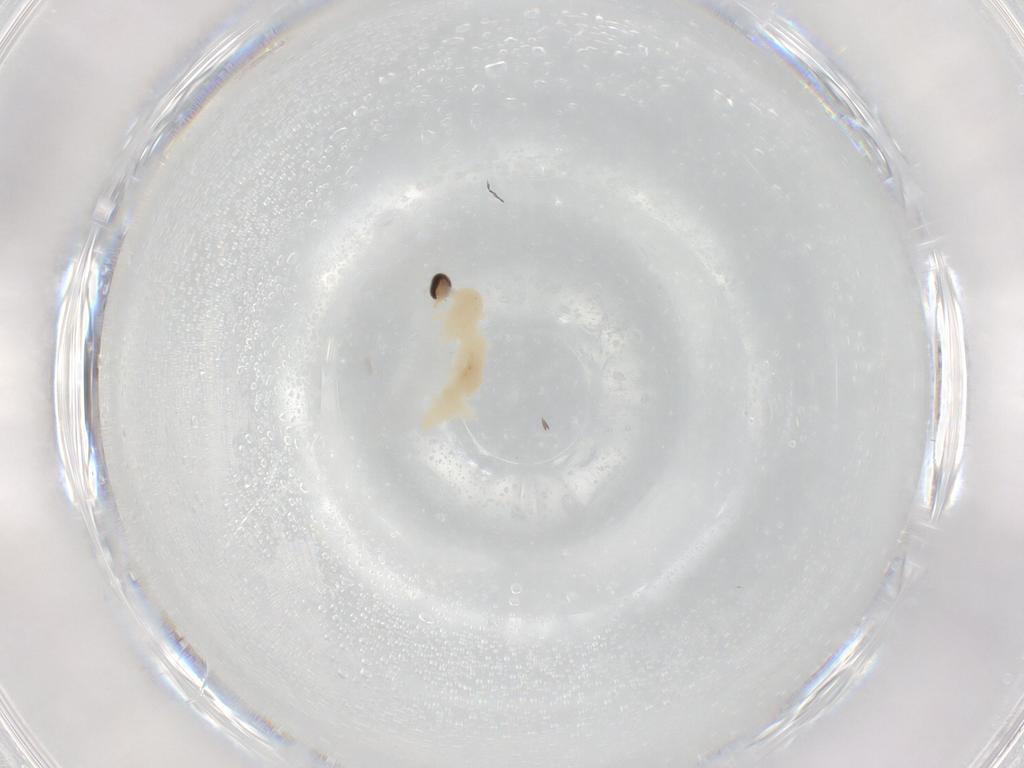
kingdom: Animalia
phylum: Arthropoda
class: Insecta
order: Diptera
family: Cecidomyiidae
